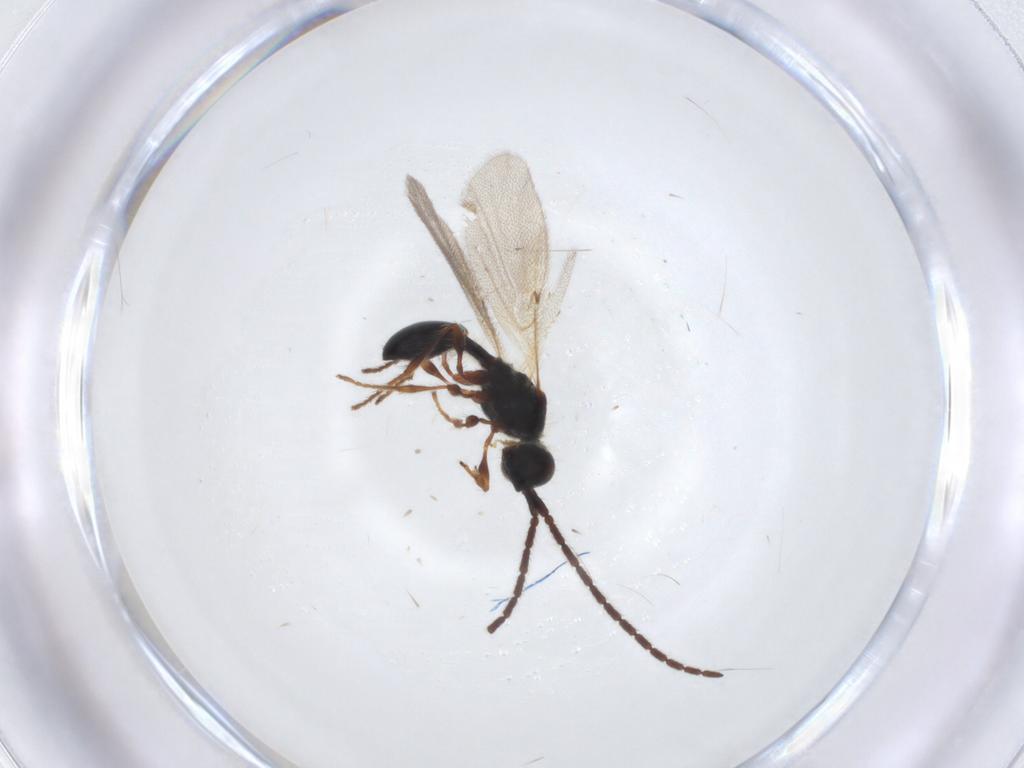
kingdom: Animalia
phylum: Arthropoda
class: Insecta
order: Hymenoptera
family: Diapriidae
